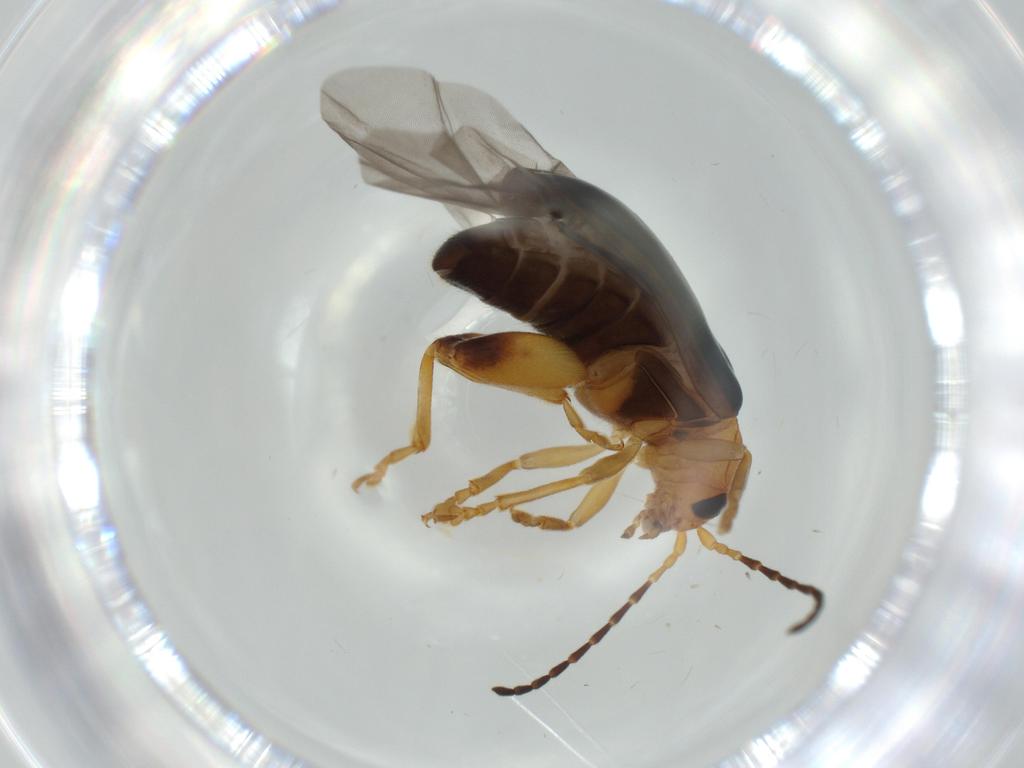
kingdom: Animalia
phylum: Arthropoda
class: Insecta
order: Coleoptera
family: Chrysomelidae
